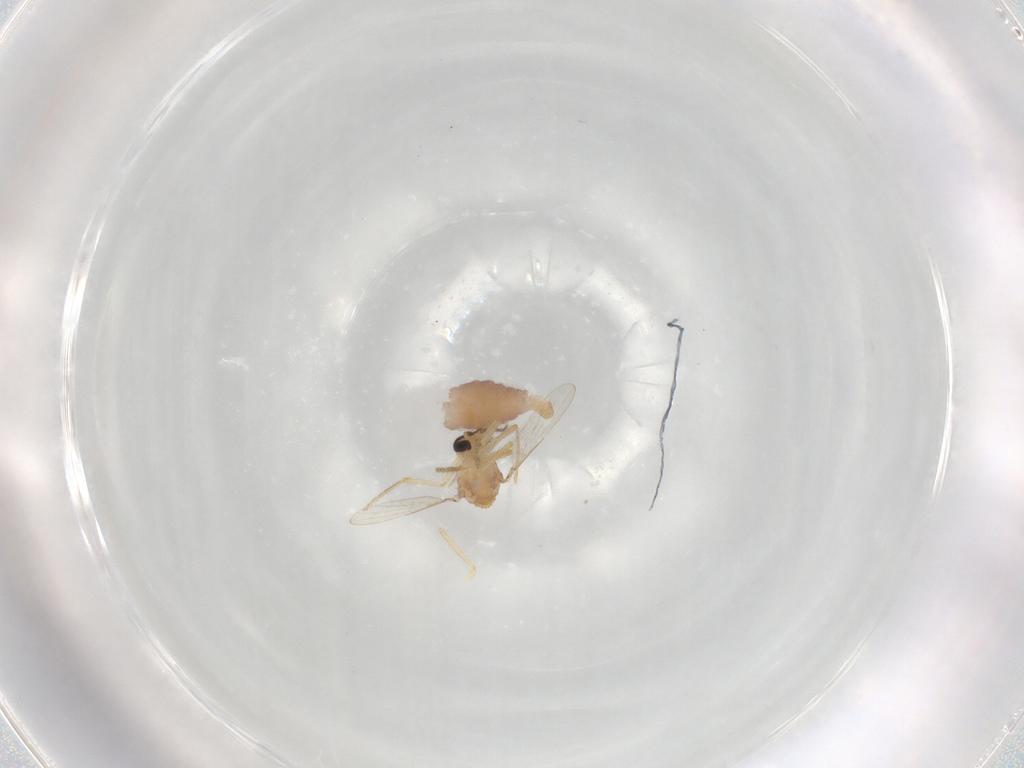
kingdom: Animalia
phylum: Arthropoda
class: Insecta
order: Diptera
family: Ceratopogonidae
